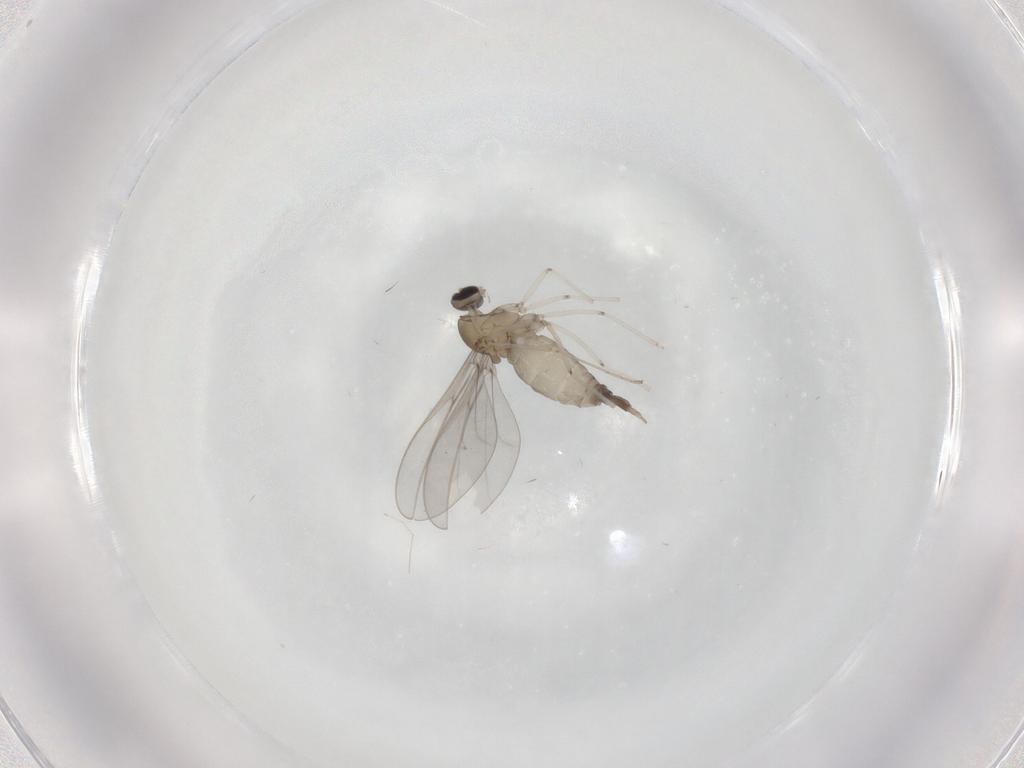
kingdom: Animalia
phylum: Arthropoda
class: Insecta
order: Diptera
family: Cecidomyiidae
